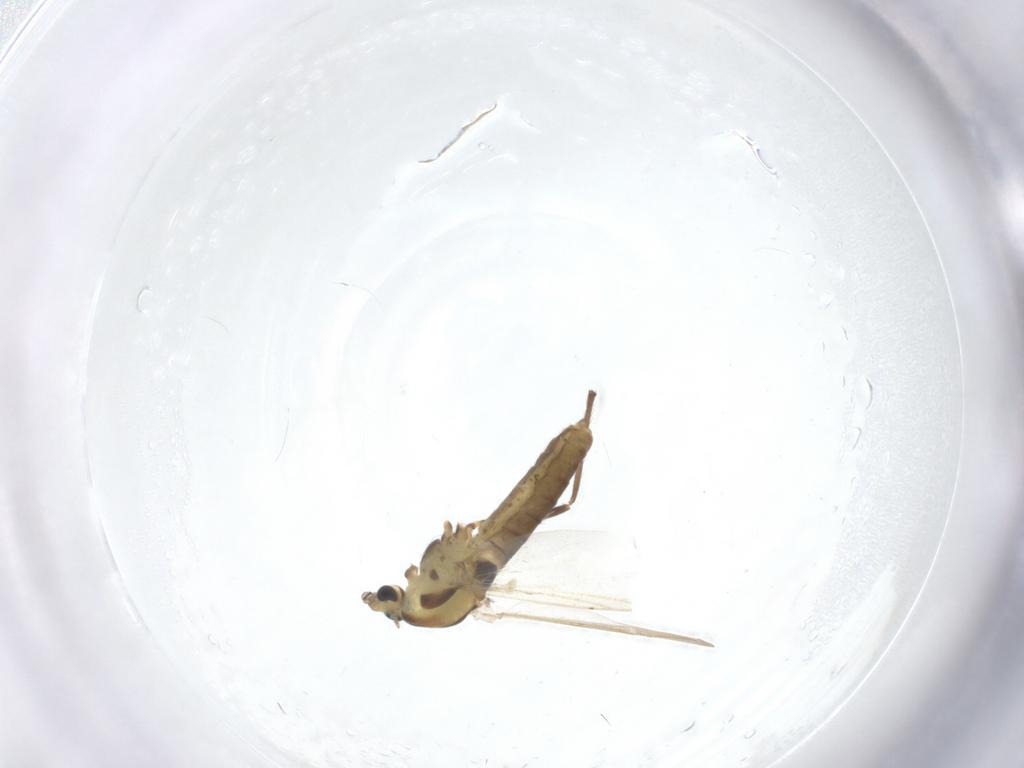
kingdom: Animalia
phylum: Arthropoda
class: Insecta
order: Diptera
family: Chironomidae
